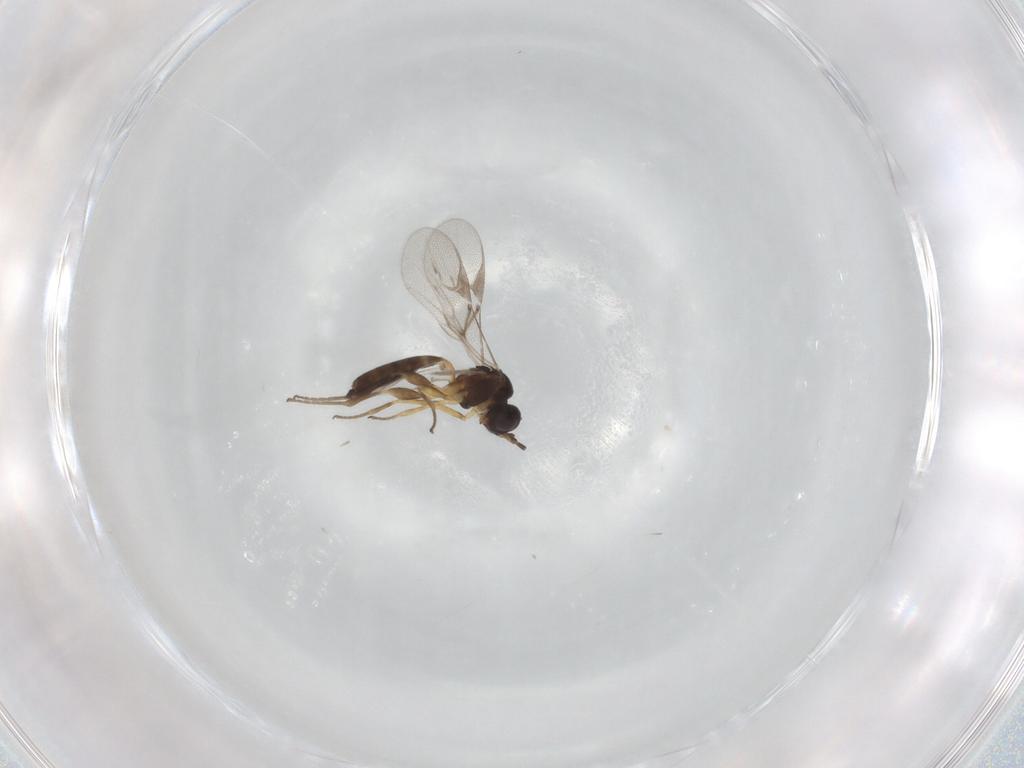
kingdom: Animalia
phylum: Arthropoda
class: Insecta
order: Hymenoptera
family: Braconidae
